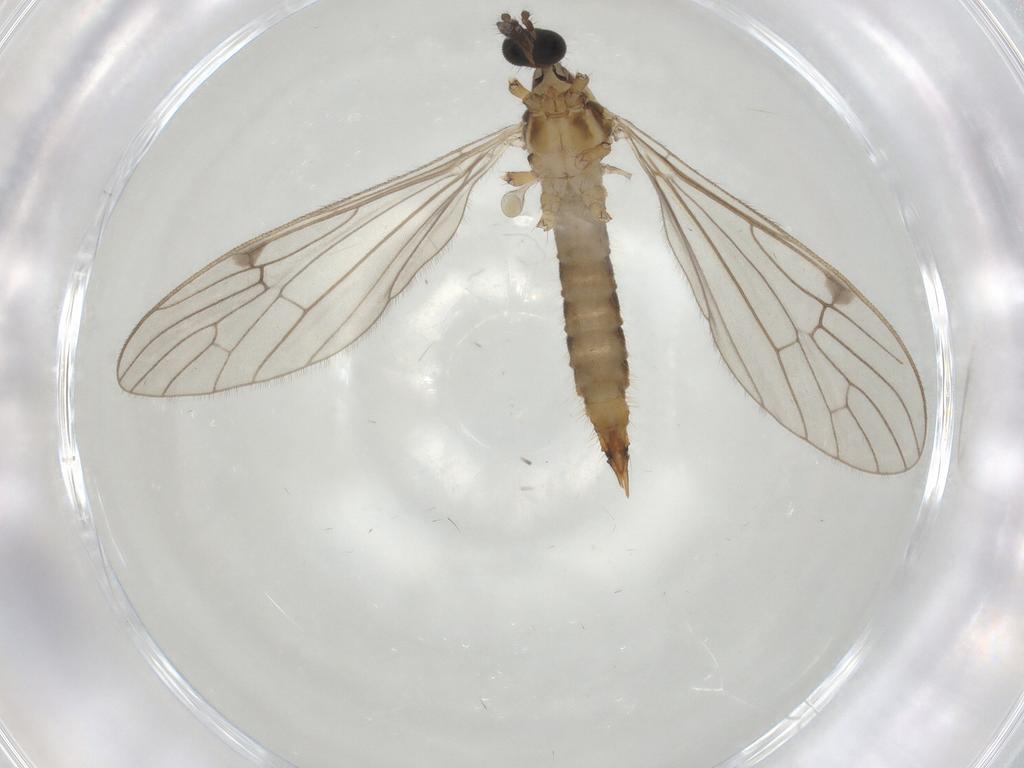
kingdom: Animalia
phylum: Arthropoda
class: Insecta
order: Diptera
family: Limoniidae
